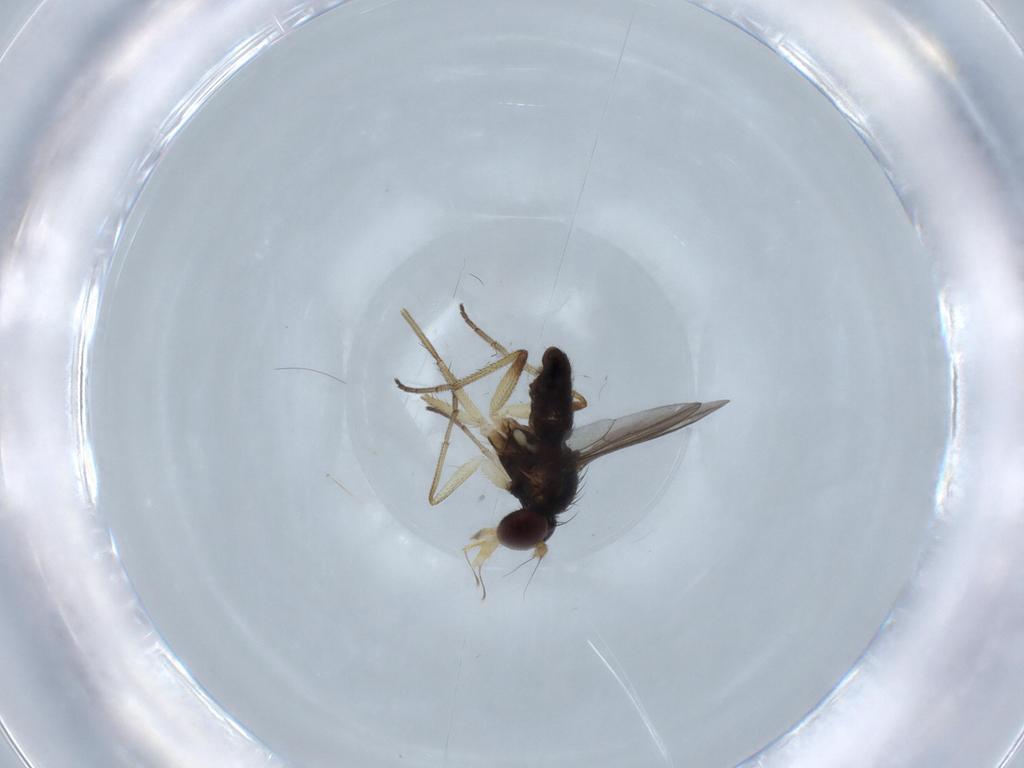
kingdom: Animalia
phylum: Arthropoda
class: Insecta
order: Diptera
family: Dolichopodidae
